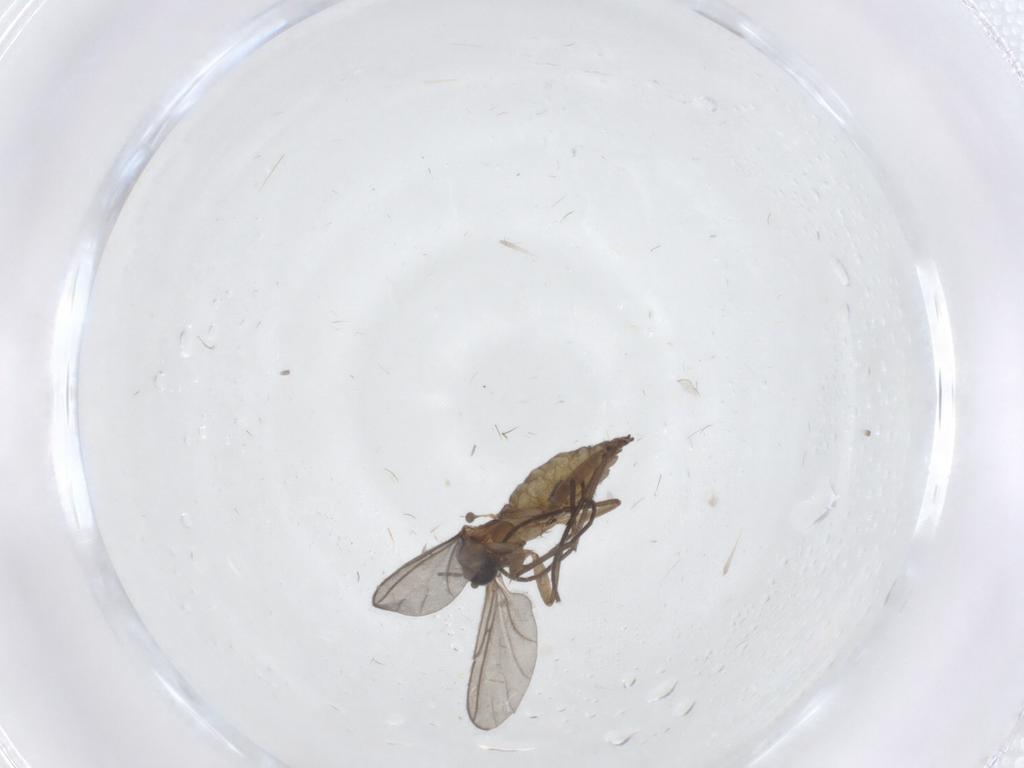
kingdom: Animalia
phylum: Arthropoda
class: Insecta
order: Diptera
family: Sciaridae
